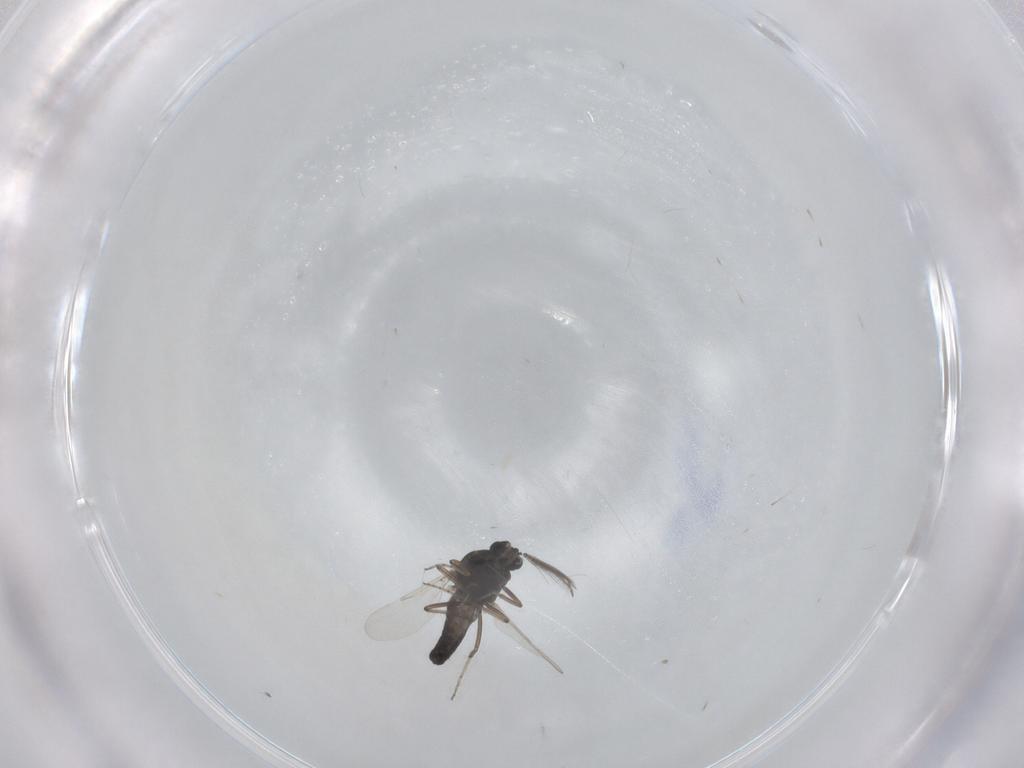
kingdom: Animalia
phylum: Arthropoda
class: Insecta
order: Diptera
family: Ceratopogonidae
